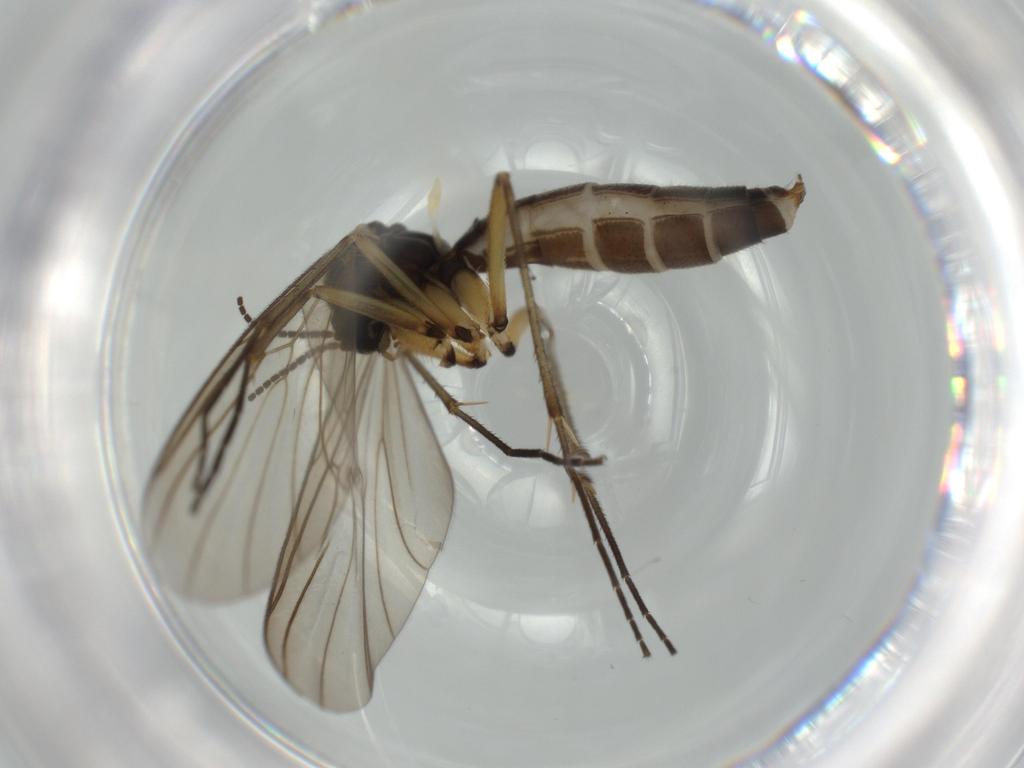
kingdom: Animalia
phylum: Arthropoda
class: Insecta
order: Diptera
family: Mycetophilidae
